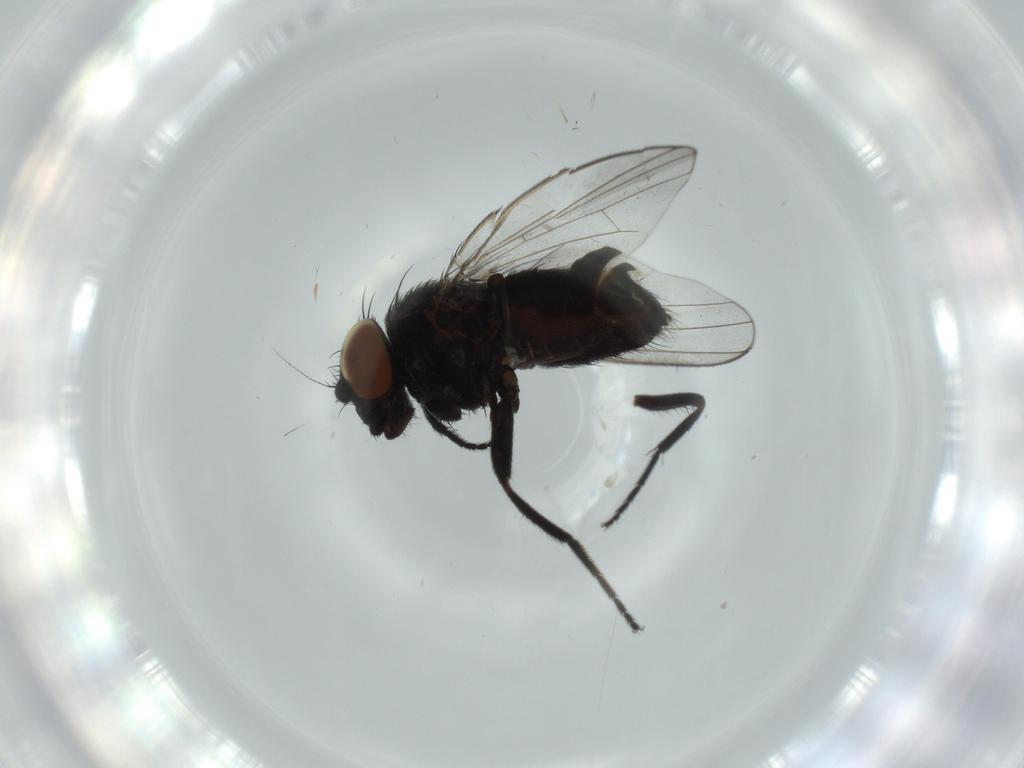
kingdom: Animalia
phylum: Arthropoda
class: Insecta
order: Diptera
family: Milichiidae
